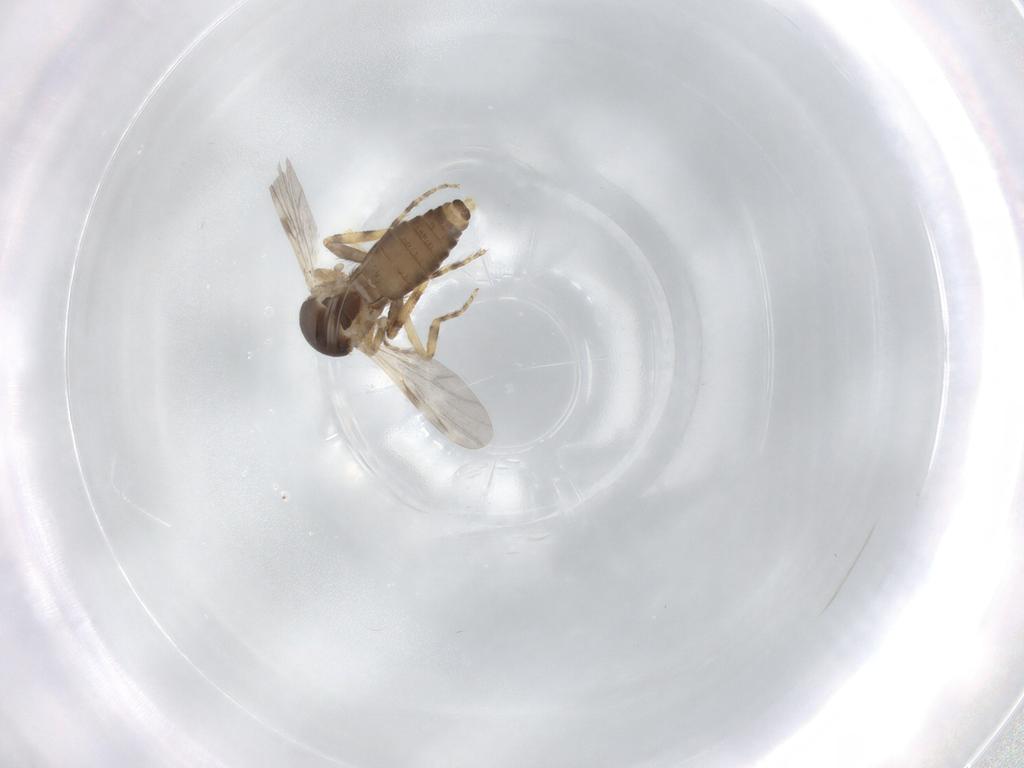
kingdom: Animalia
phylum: Arthropoda
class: Insecta
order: Diptera
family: Ceratopogonidae
